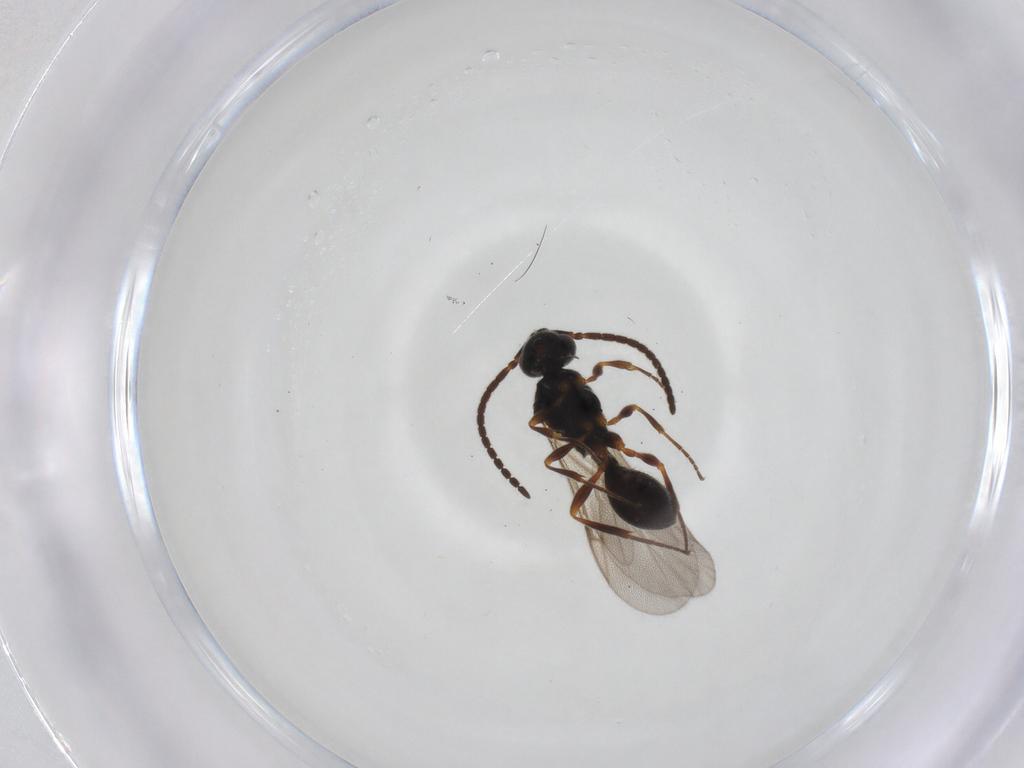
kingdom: Animalia
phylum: Arthropoda
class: Insecta
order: Hymenoptera
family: Formicidae
